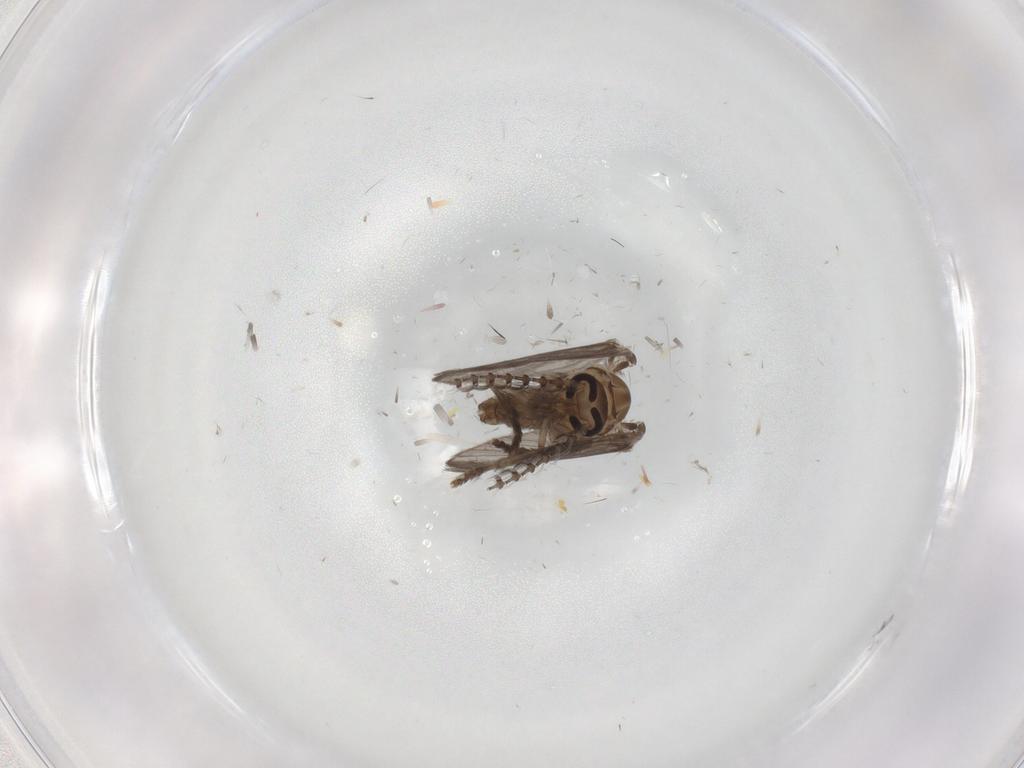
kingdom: Animalia
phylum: Arthropoda
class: Insecta
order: Diptera
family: Psychodidae
